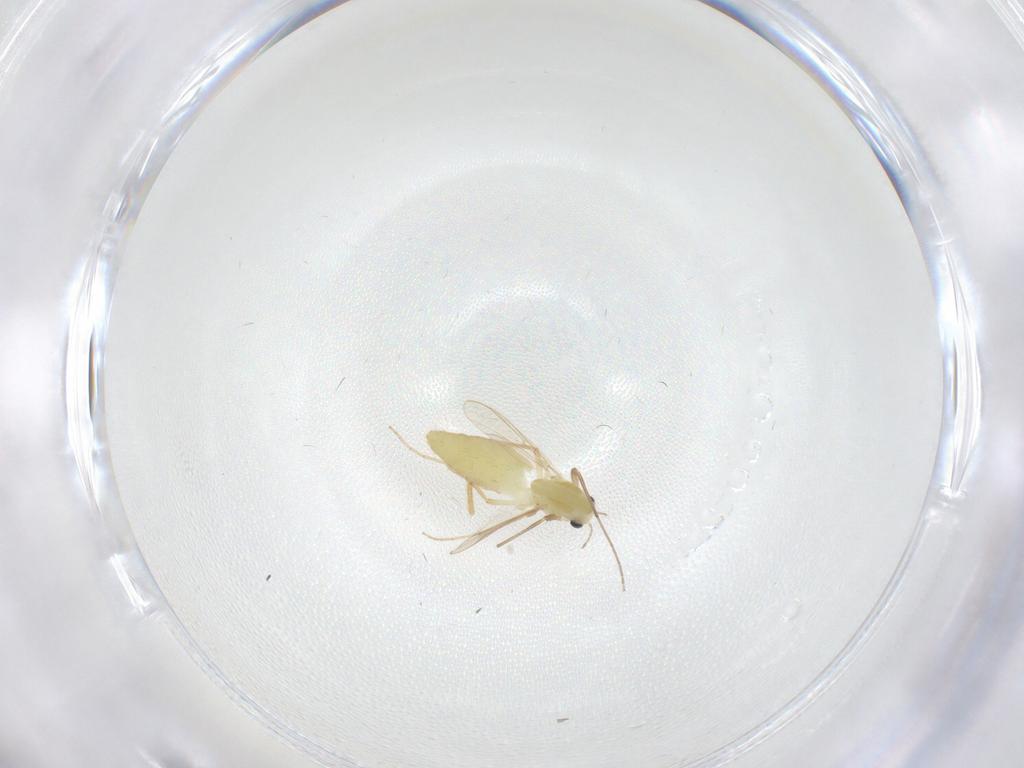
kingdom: Animalia
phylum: Arthropoda
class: Insecta
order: Diptera
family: Chironomidae
